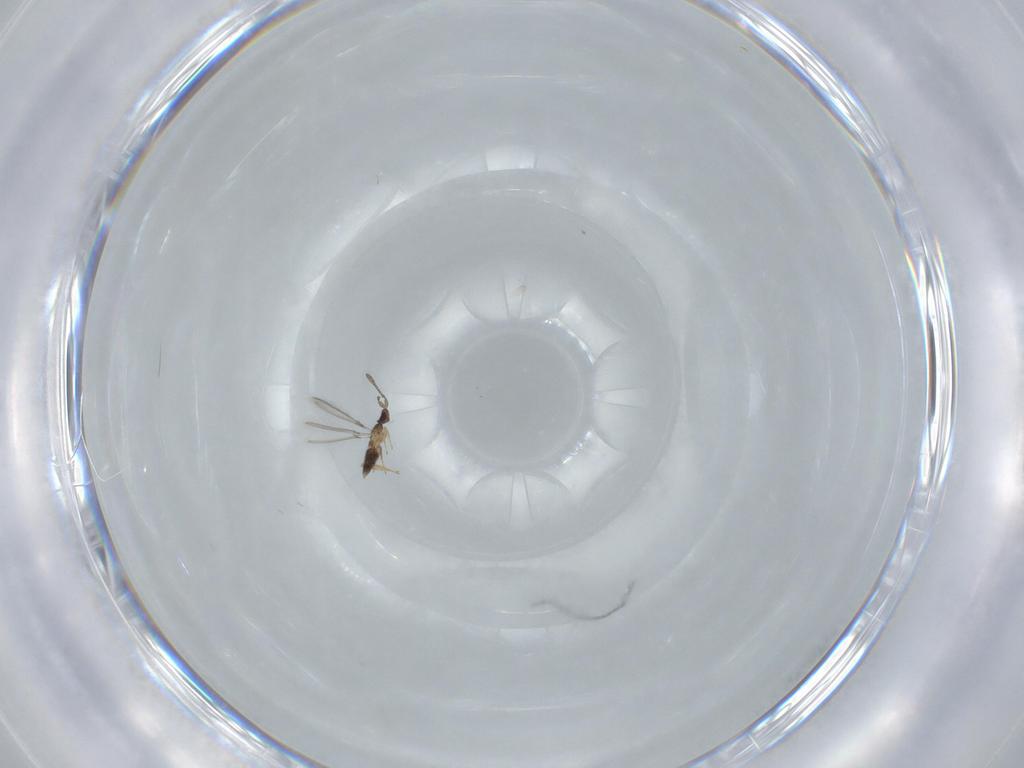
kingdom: Animalia
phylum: Arthropoda
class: Insecta
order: Hymenoptera
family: Mymaridae
